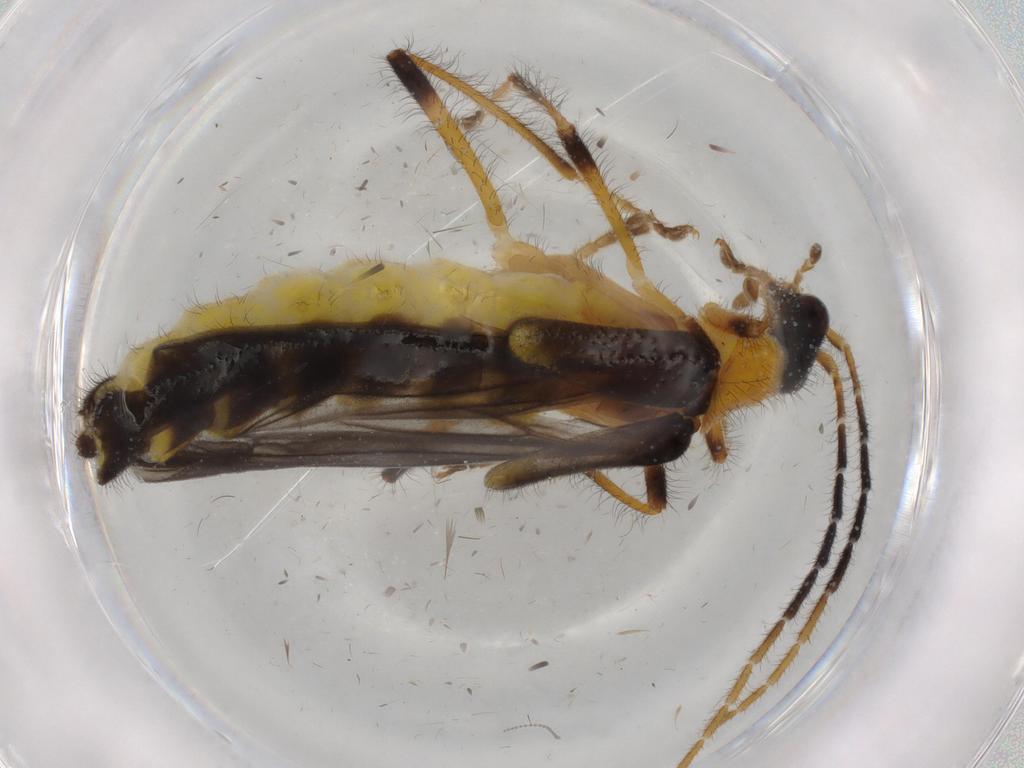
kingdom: Animalia
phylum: Arthropoda
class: Insecta
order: Coleoptera
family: Cantharidae
